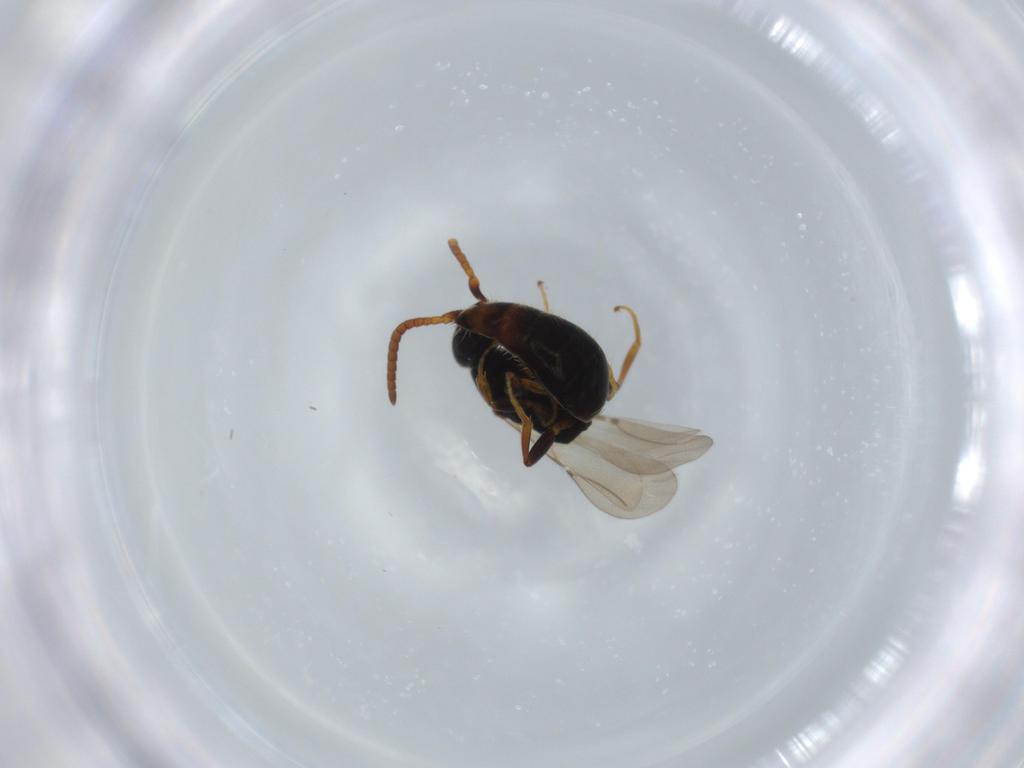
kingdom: Animalia
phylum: Arthropoda
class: Insecta
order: Hymenoptera
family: Bethylidae
